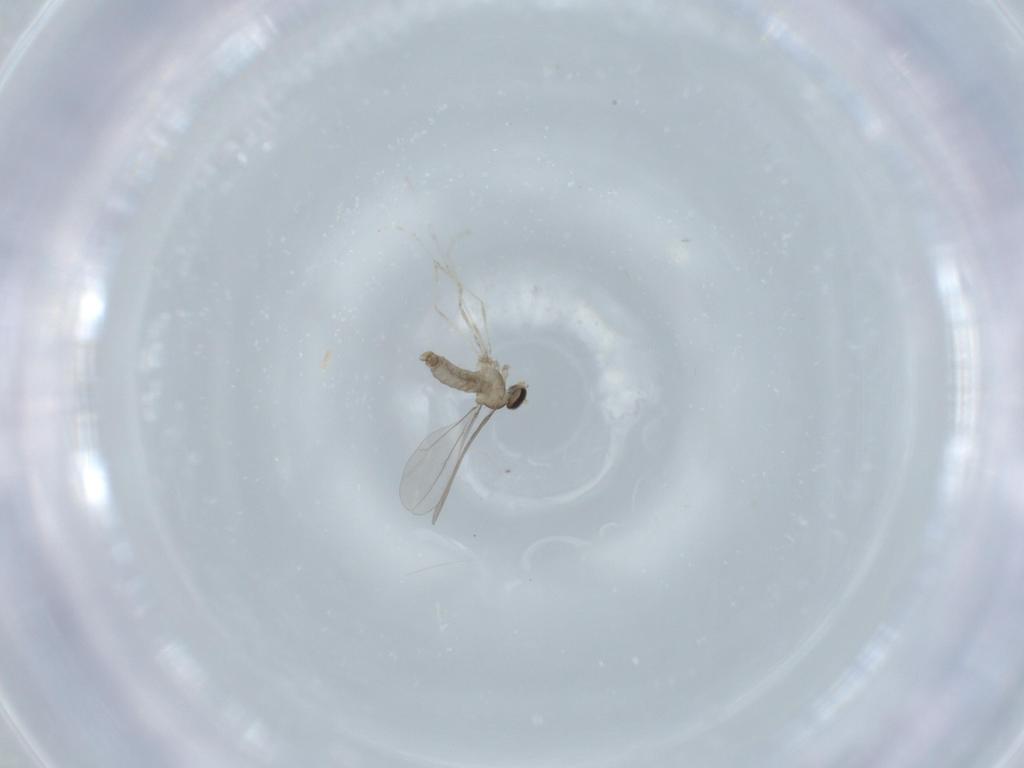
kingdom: Animalia
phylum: Arthropoda
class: Insecta
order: Diptera
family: Cecidomyiidae
